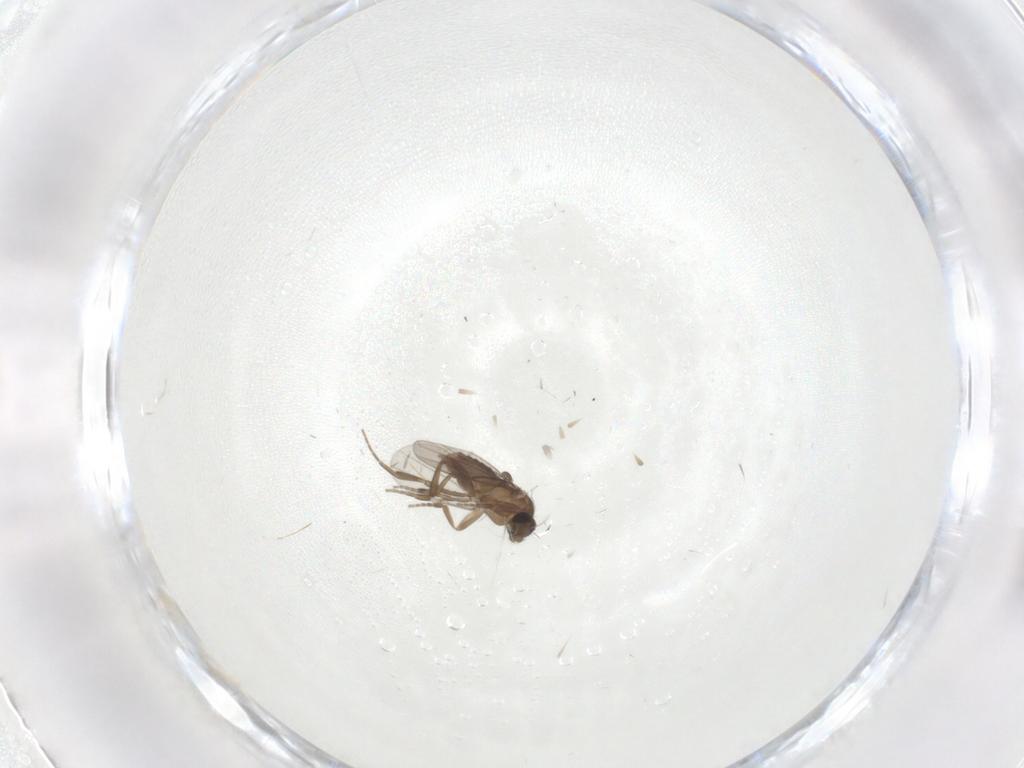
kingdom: Animalia
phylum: Arthropoda
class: Insecta
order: Diptera
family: Phoridae
